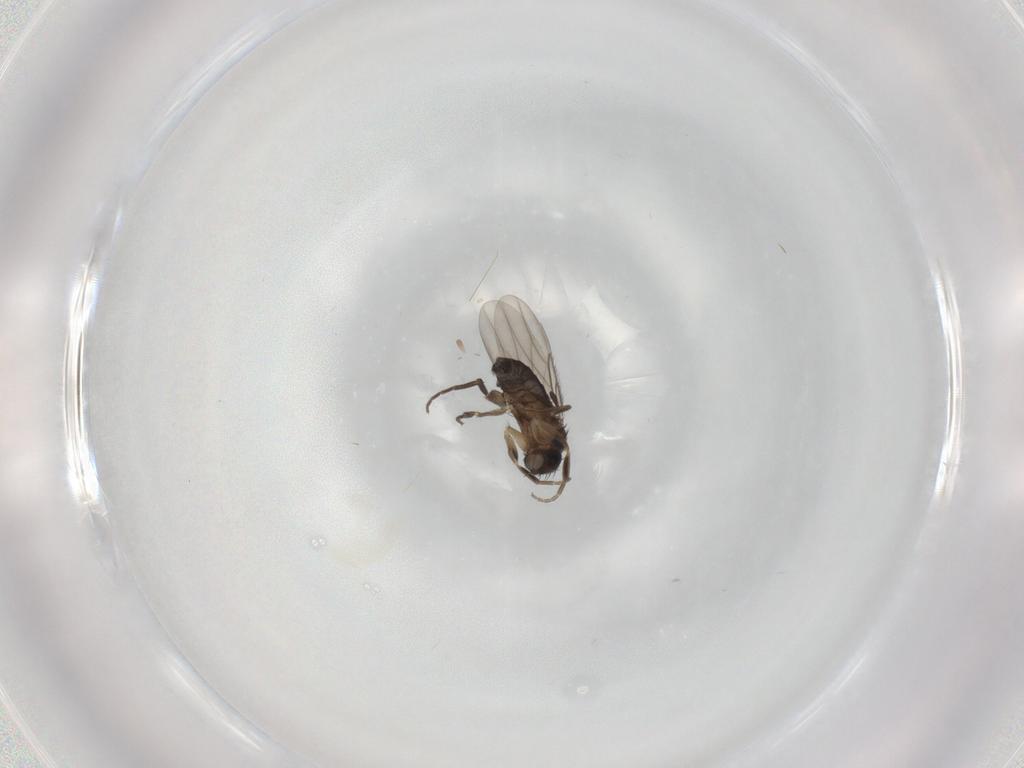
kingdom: Animalia
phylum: Arthropoda
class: Insecta
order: Diptera
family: Phoridae
